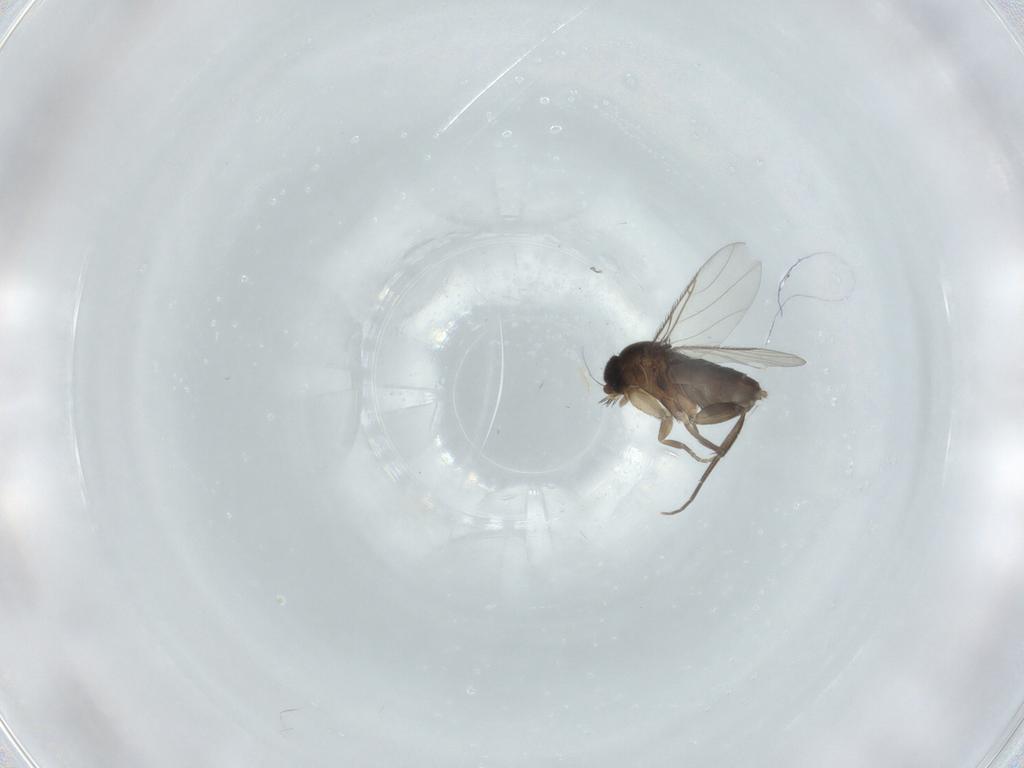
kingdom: Animalia
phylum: Arthropoda
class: Insecta
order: Diptera
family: Phoridae
